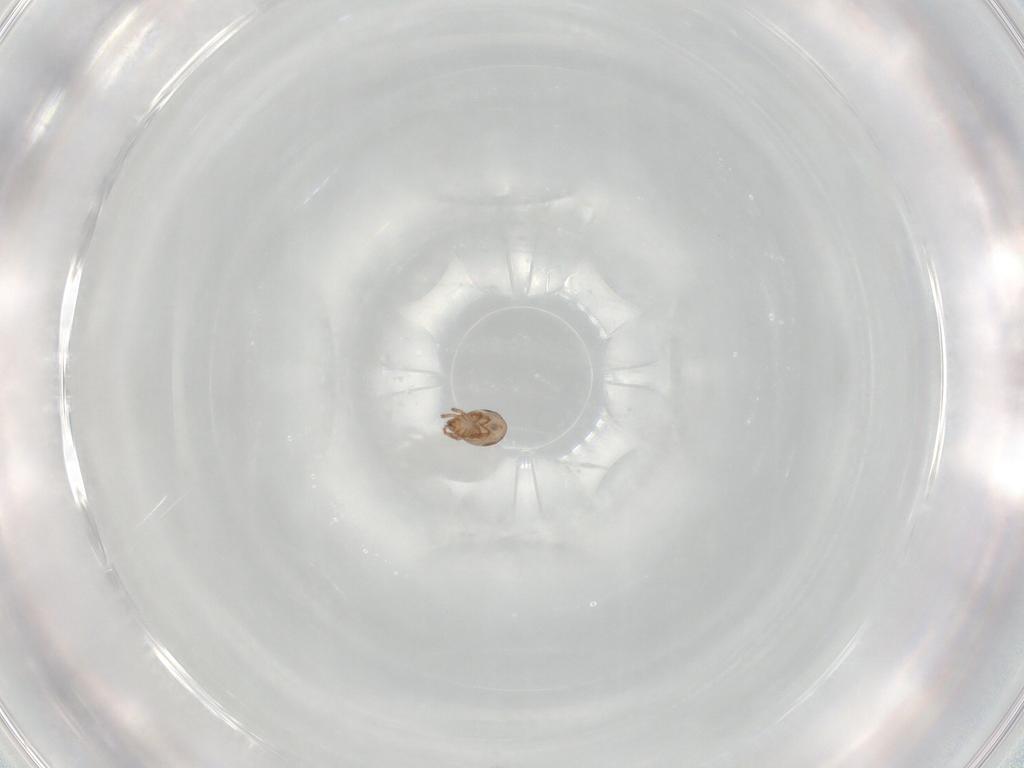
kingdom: Animalia
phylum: Arthropoda
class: Arachnida
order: Sarcoptiformes
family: Ceratozetidae
